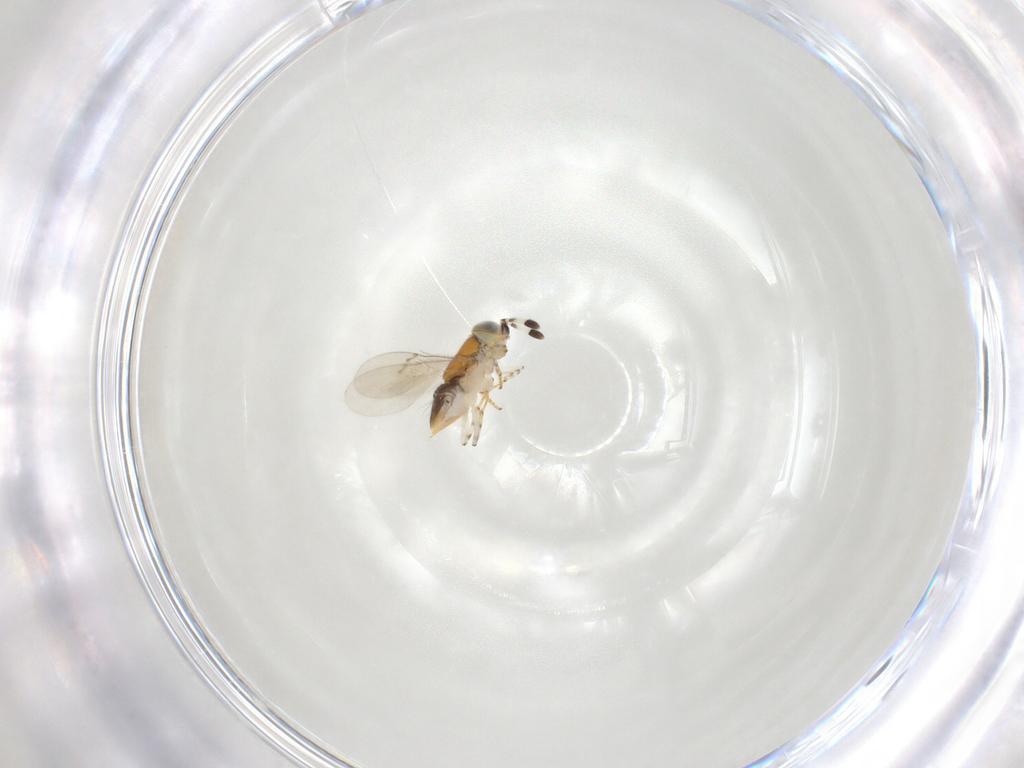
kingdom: Animalia
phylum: Arthropoda
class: Insecta
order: Hymenoptera
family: Encyrtidae
